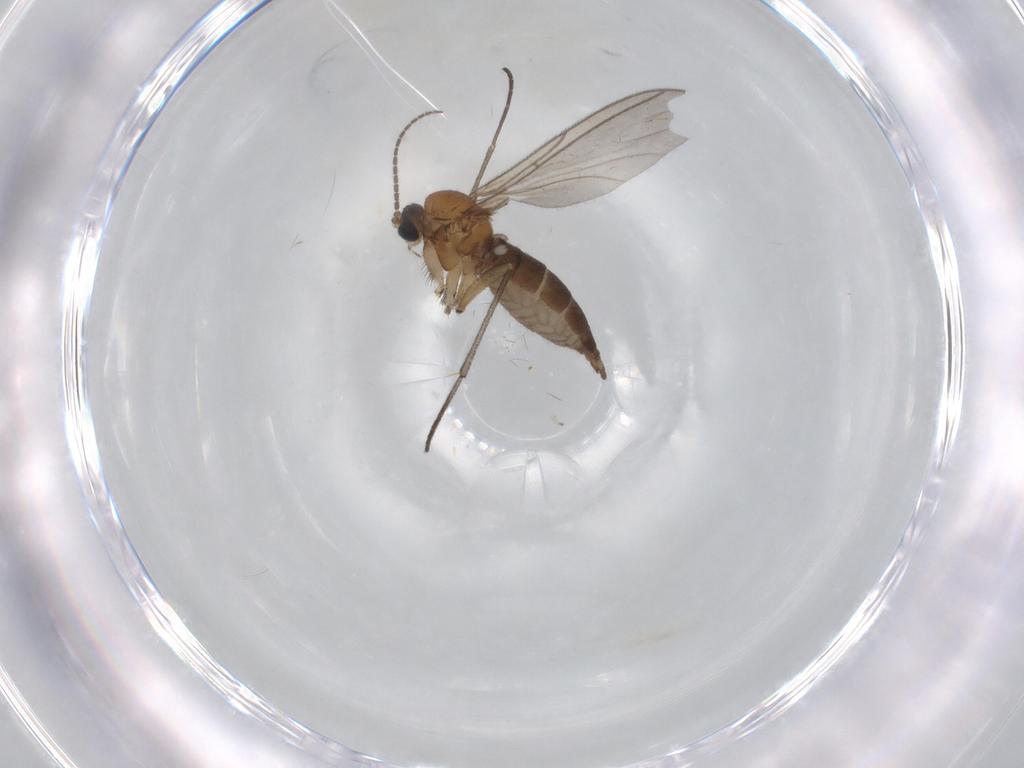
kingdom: Animalia
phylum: Arthropoda
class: Insecta
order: Diptera
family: Sciaridae
